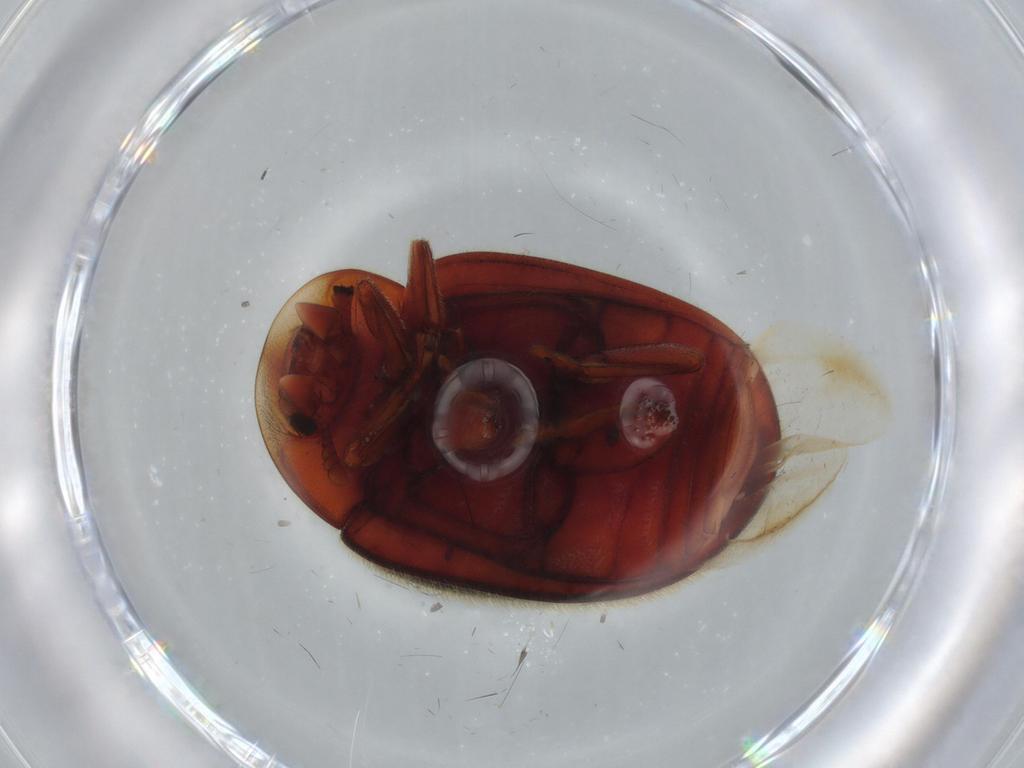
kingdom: Animalia
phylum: Arthropoda
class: Insecta
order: Coleoptera
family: Coccinellidae
